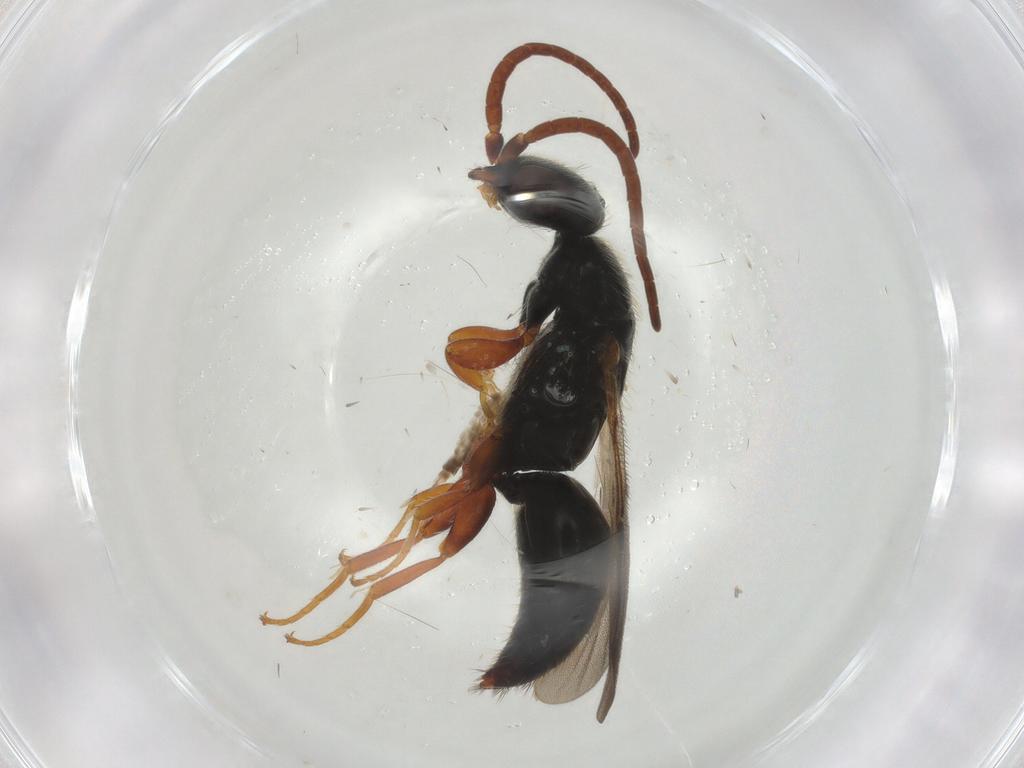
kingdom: Animalia
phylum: Arthropoda
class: Insecta
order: Hymenoptera
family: Bethylidae
